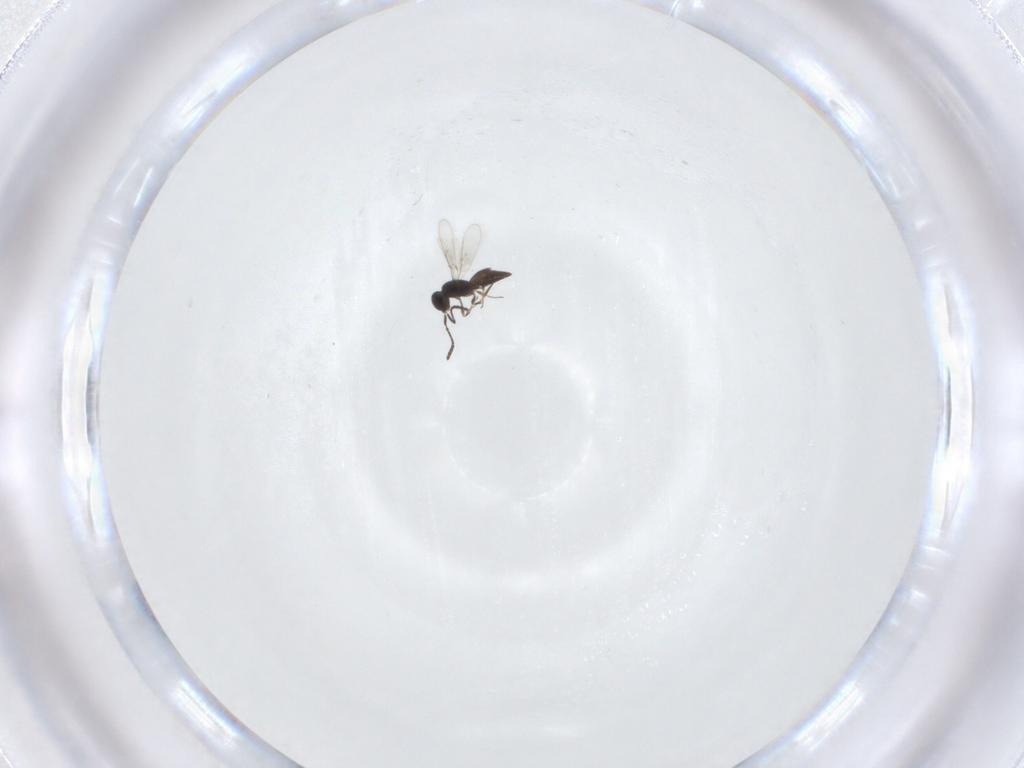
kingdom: Animalia
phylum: Arthropoda
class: Insecta
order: Hymenoptera
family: Scelionidae
